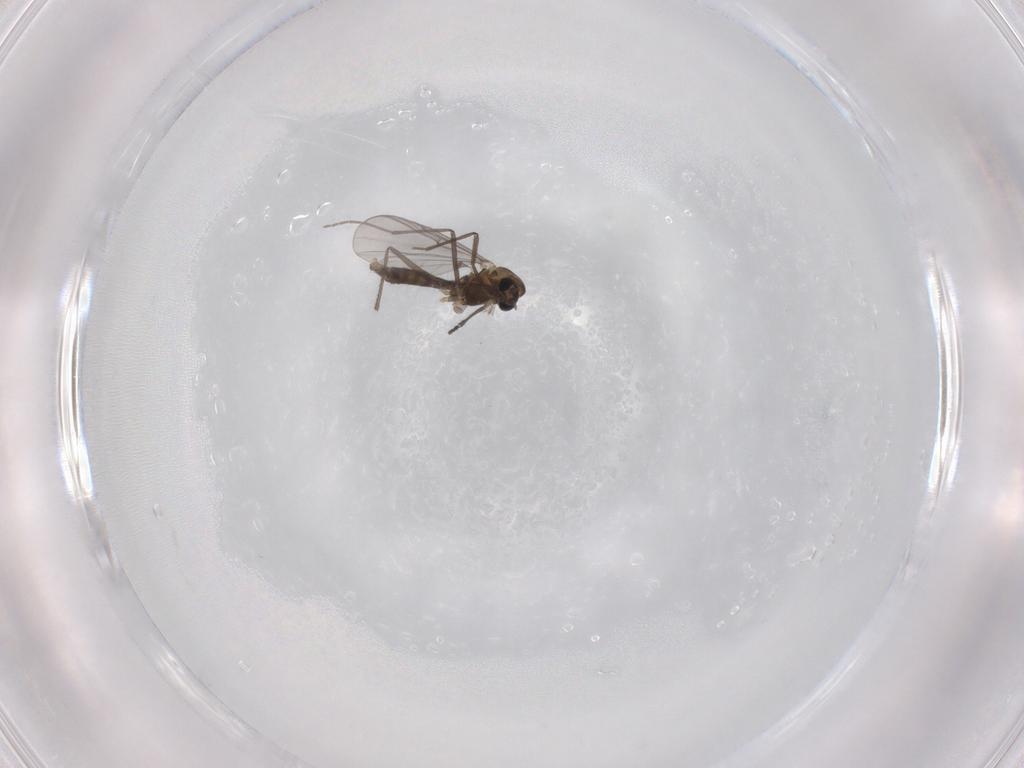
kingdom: Animalia
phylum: Arthropoda
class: Insecta
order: Diptera
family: Chironomidae
